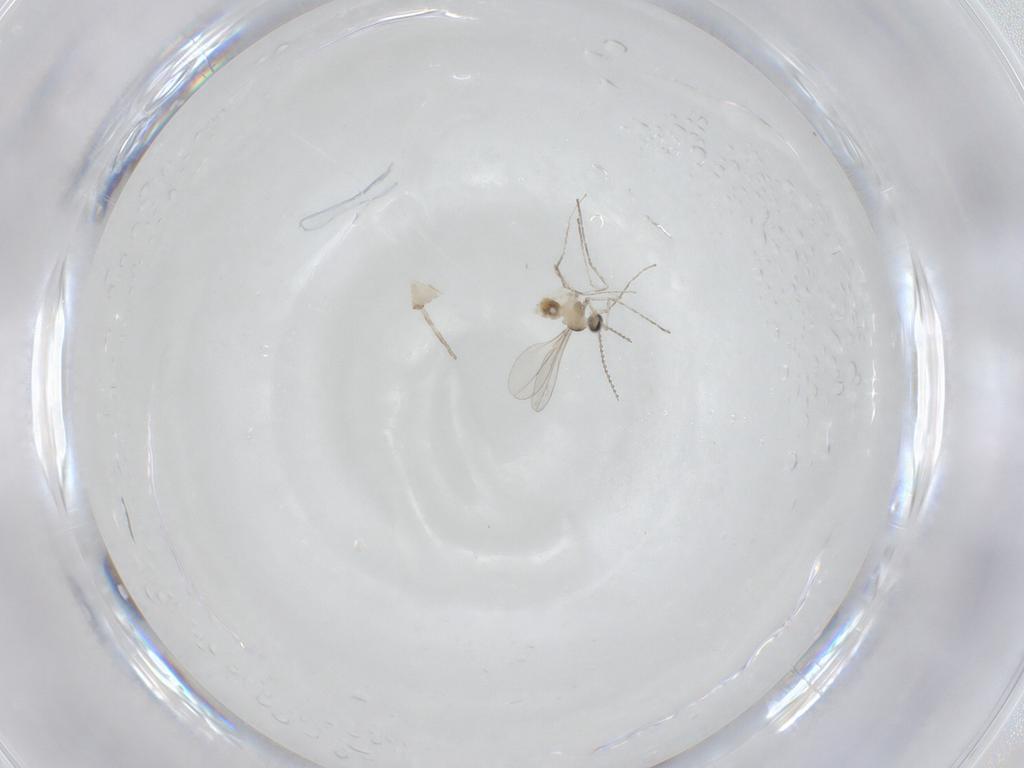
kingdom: Animalia
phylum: Arthropoda
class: Insecta
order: Diptera
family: Cecidomyiidae
